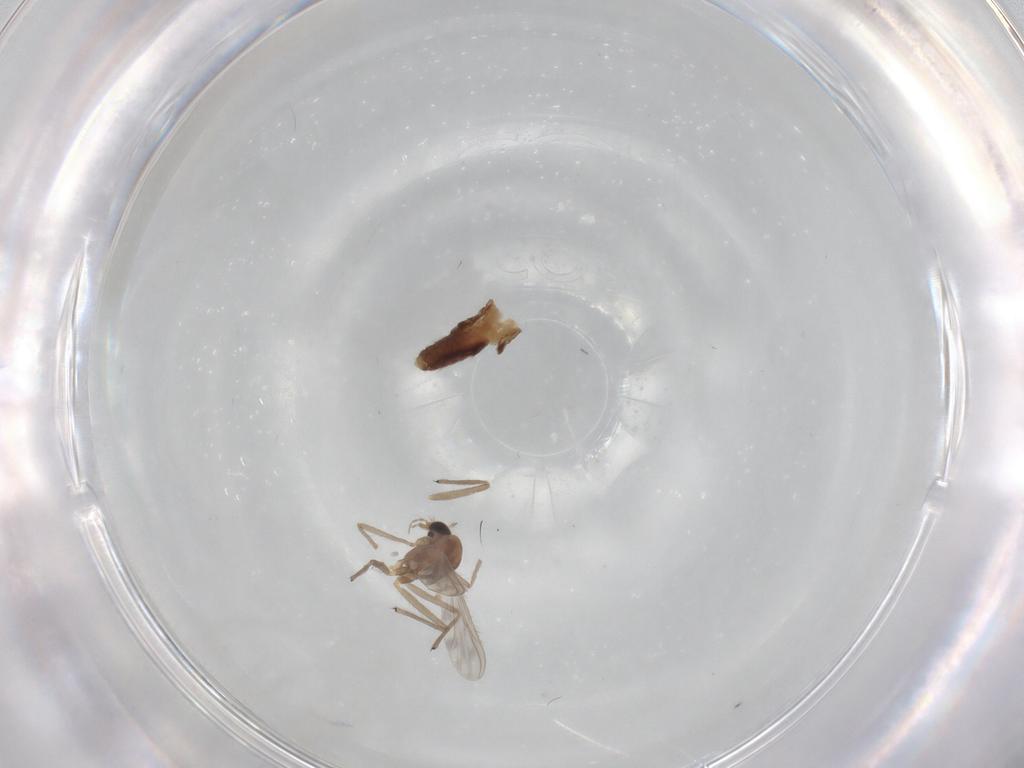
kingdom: Animalia
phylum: Arthropoda
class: Insecta
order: Diptera
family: Chironomidae
